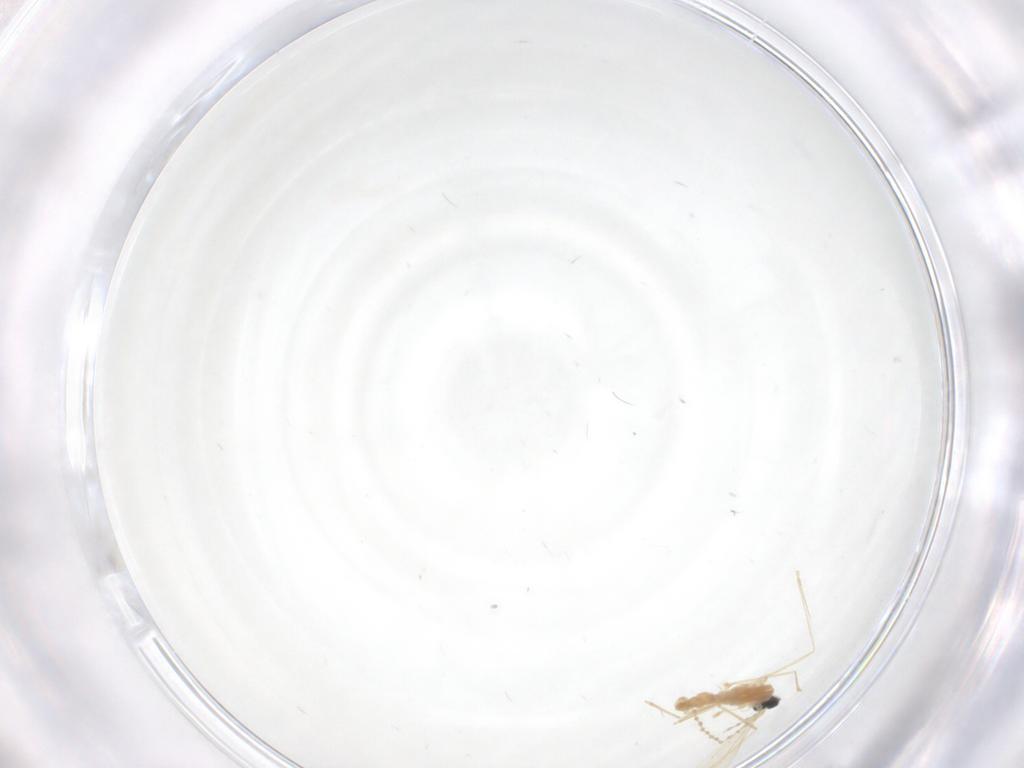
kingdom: Animalia
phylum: Arthropoda
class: Insecta
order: Diptera
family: Cecidomyiidae
